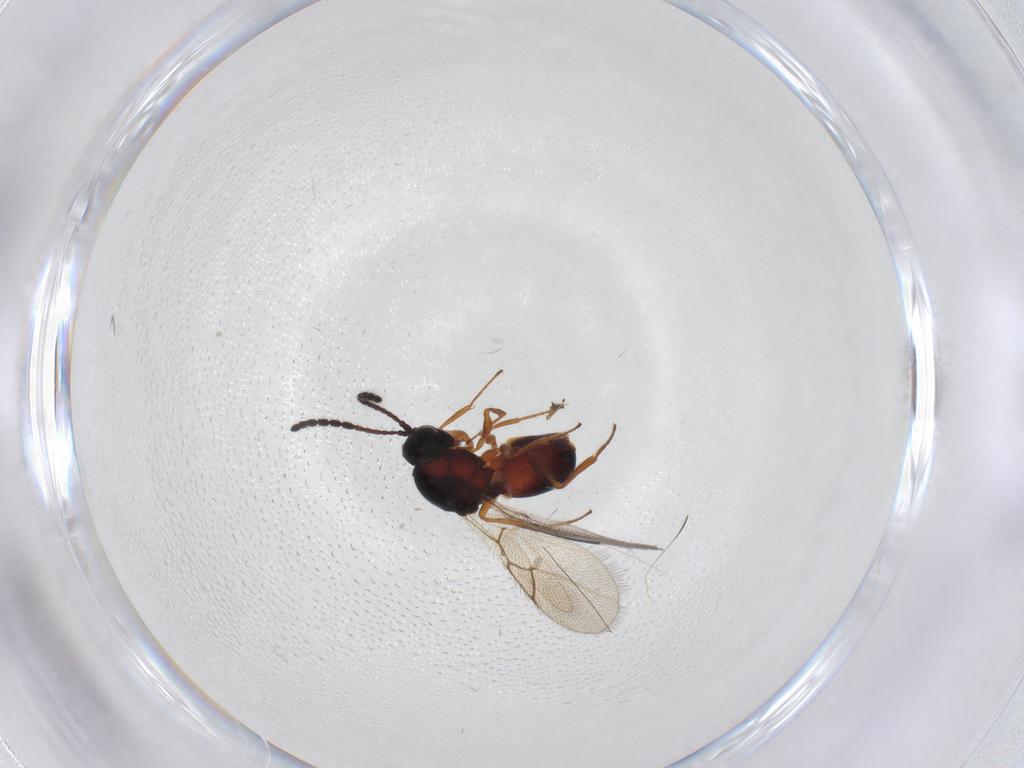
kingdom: Animalia
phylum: Arthropoda
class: Insecta
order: Hymenoptera
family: Figitidae
